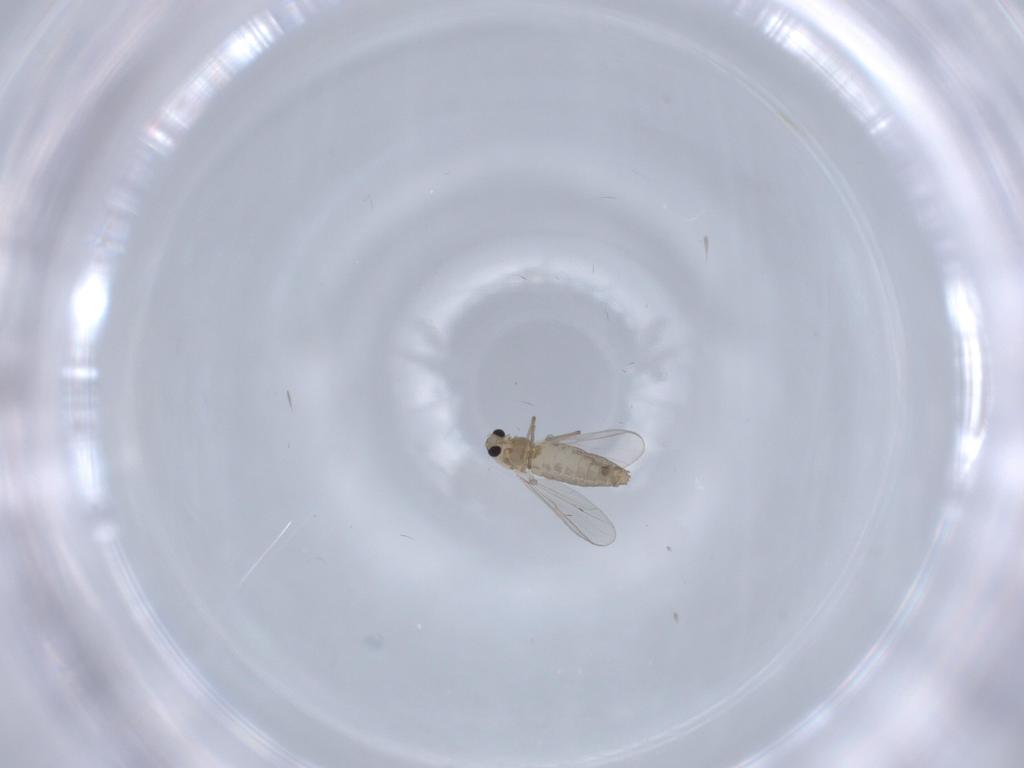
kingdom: Animalia
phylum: Arthropoda
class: Insecta
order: Diptera
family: Chironomidae
